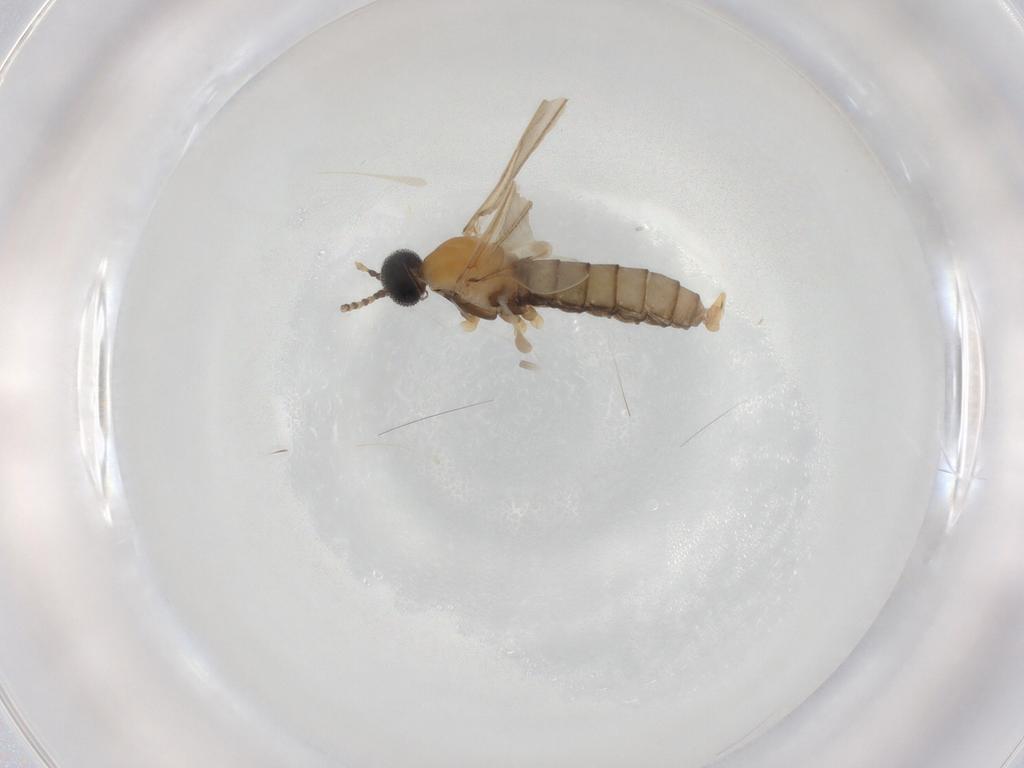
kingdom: Animalia
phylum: Arthropoda
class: Insecta
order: Diptera
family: Cecidomyiidae
